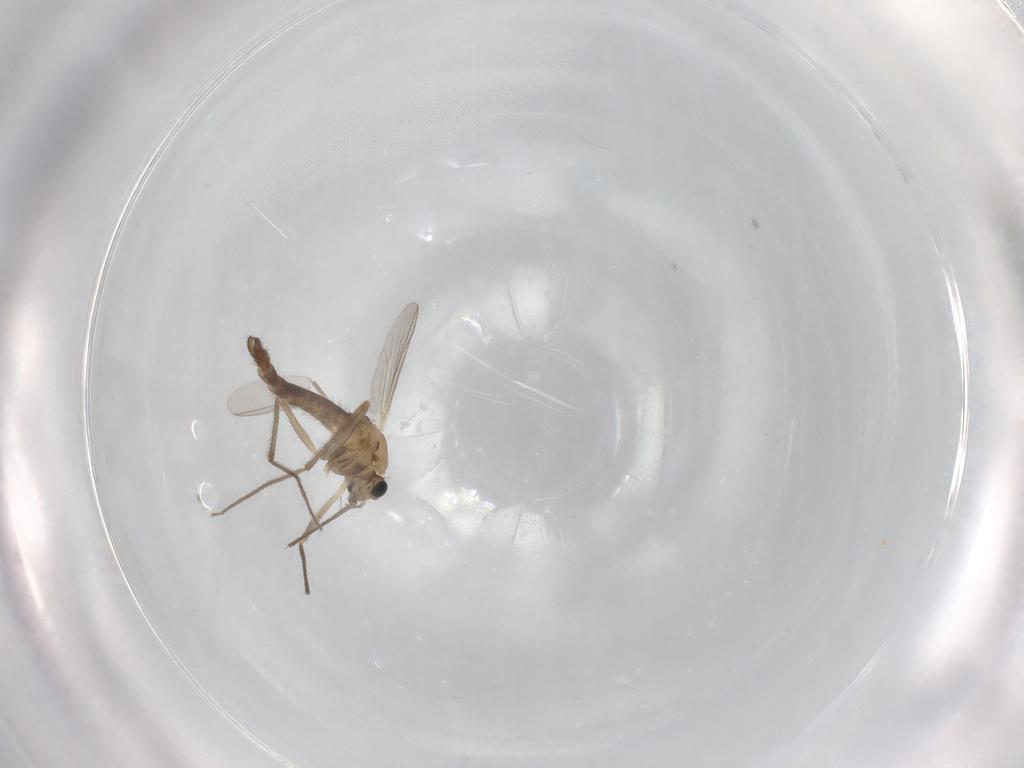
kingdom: Animalia
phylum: Arthropoda
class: Insecta
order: Diptera
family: Chironomidae
